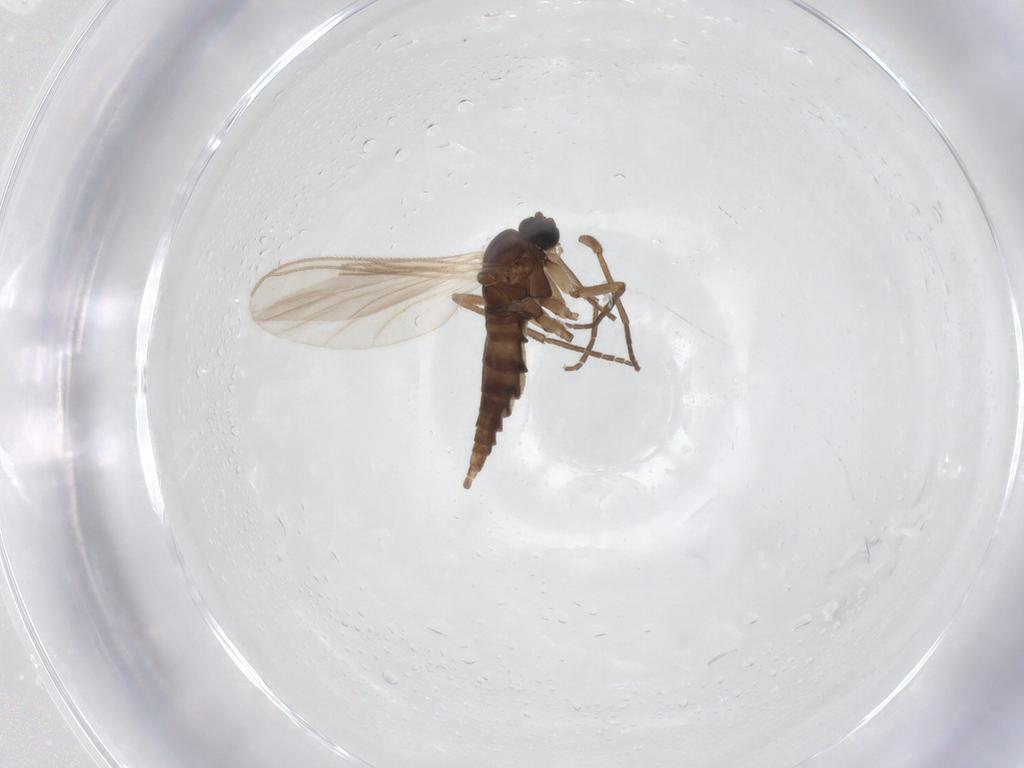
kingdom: Animalia
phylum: Arthropoda
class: Insecta
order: Diptera
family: Sciaridae
